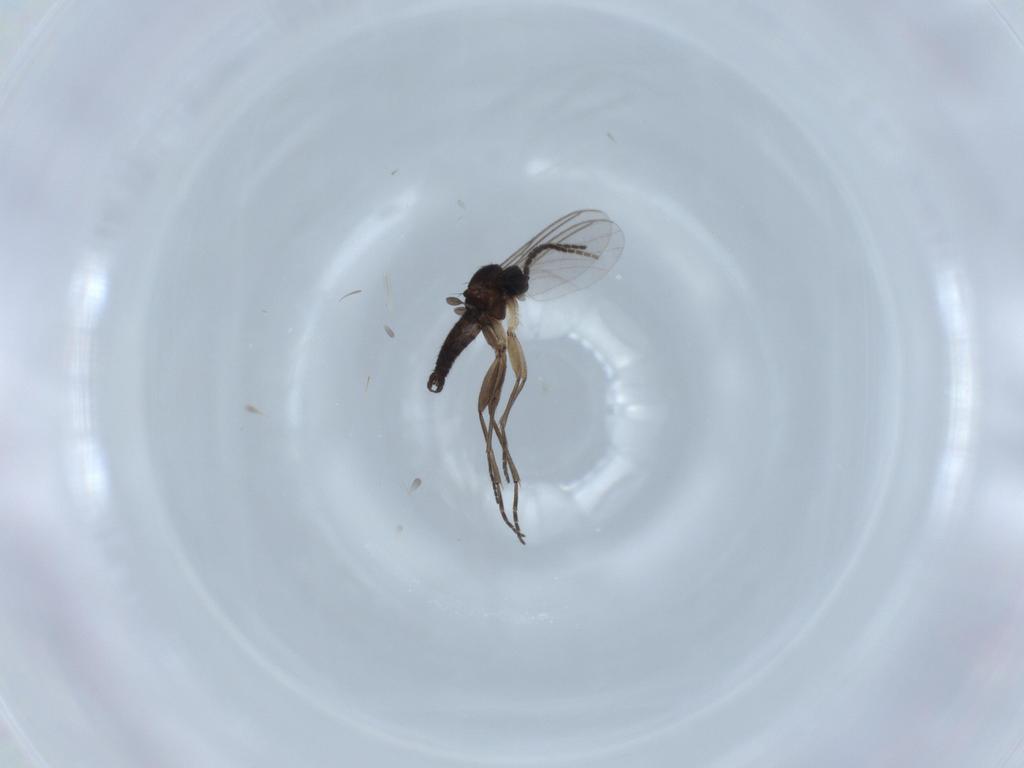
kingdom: Animalia
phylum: Arthropoda
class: Insecta
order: Diptera
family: Sciaridae
